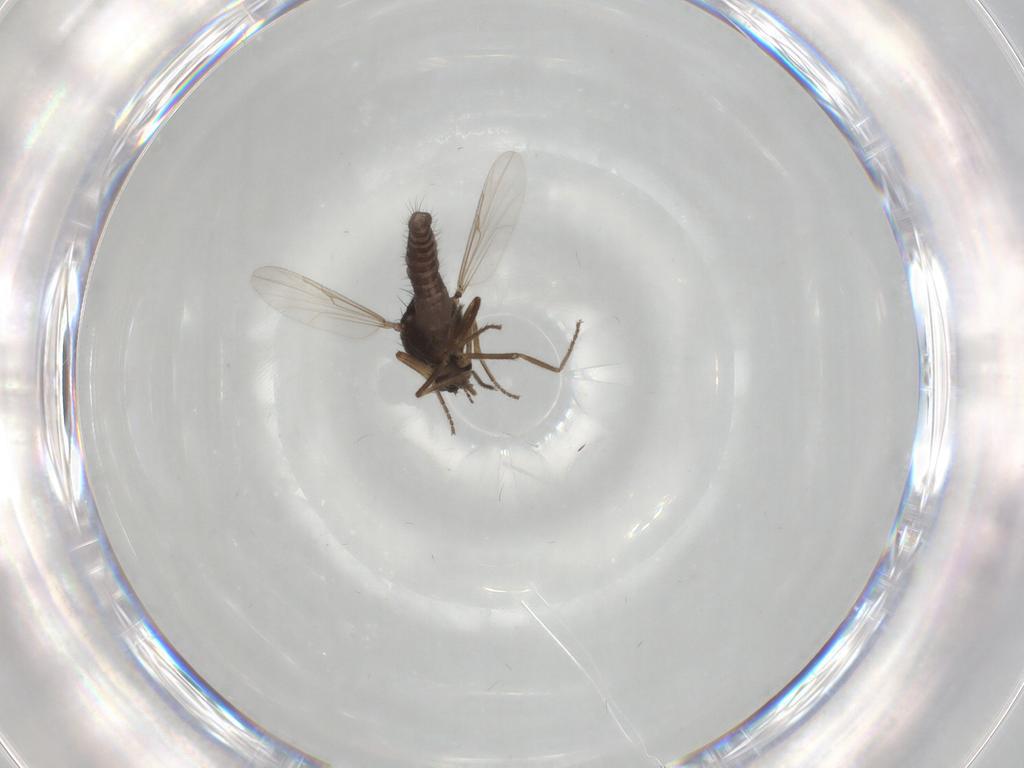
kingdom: Animalia
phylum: Arthropoda
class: Insecta
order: Diptera
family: Ceratopogonidae
